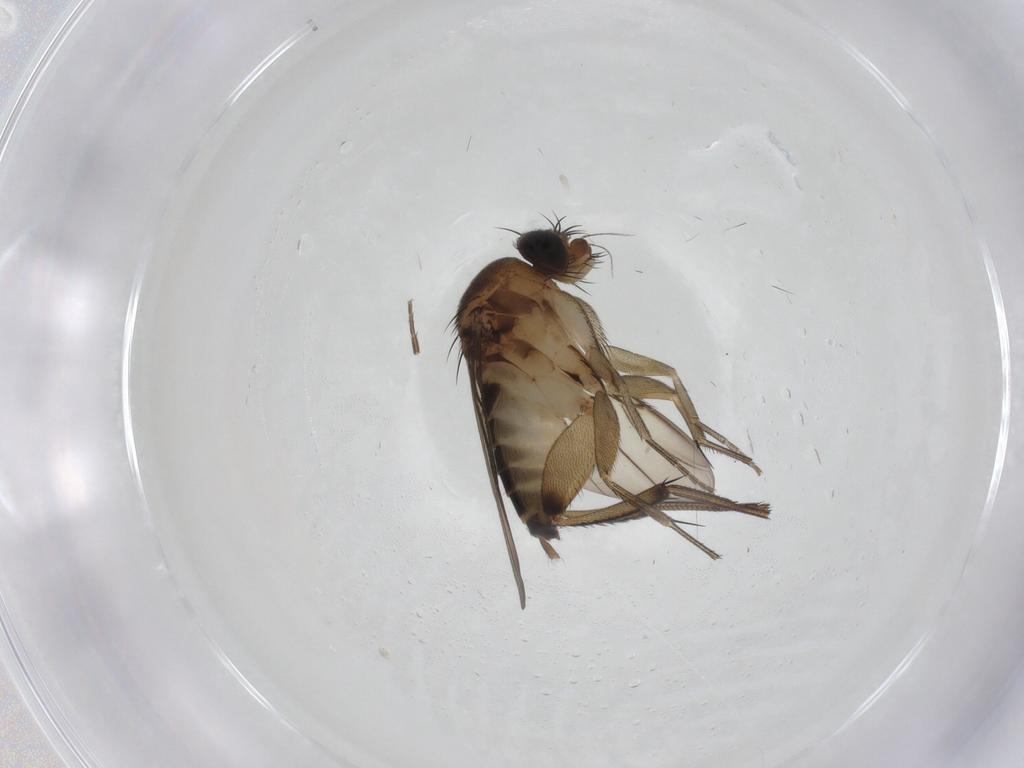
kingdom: Animalia
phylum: Arthropoda
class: Insecta
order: Diptera
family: Phoridae
